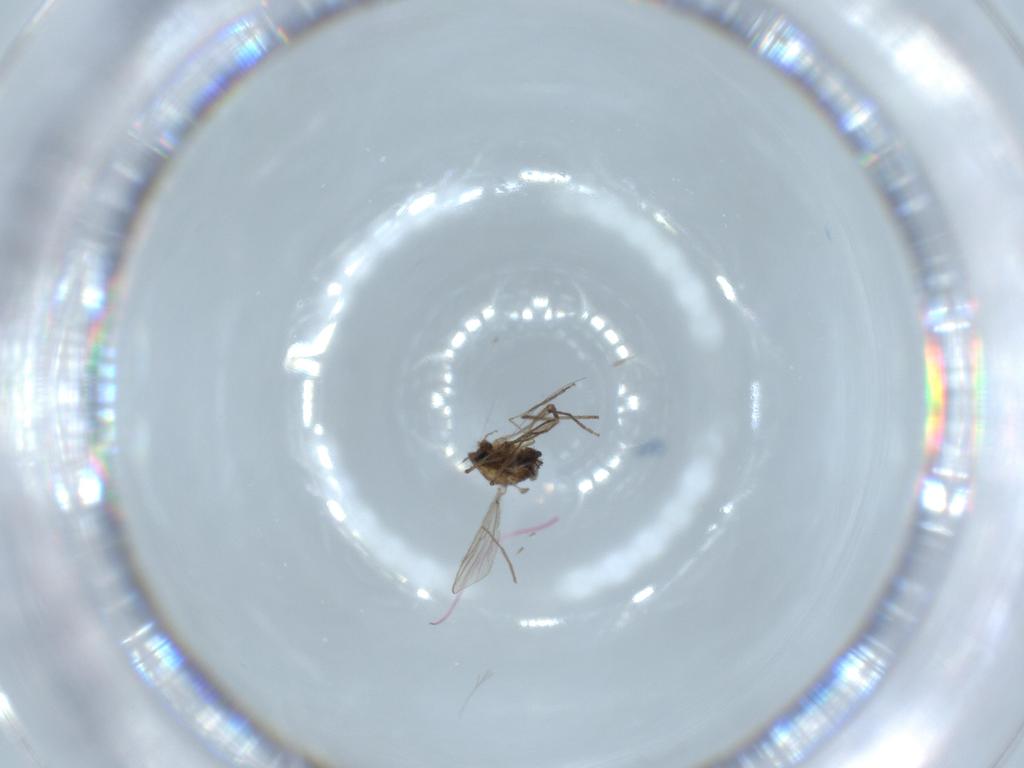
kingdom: Animalia
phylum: Arthropoda
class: Insecta
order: Diptera
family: Chironomidae
